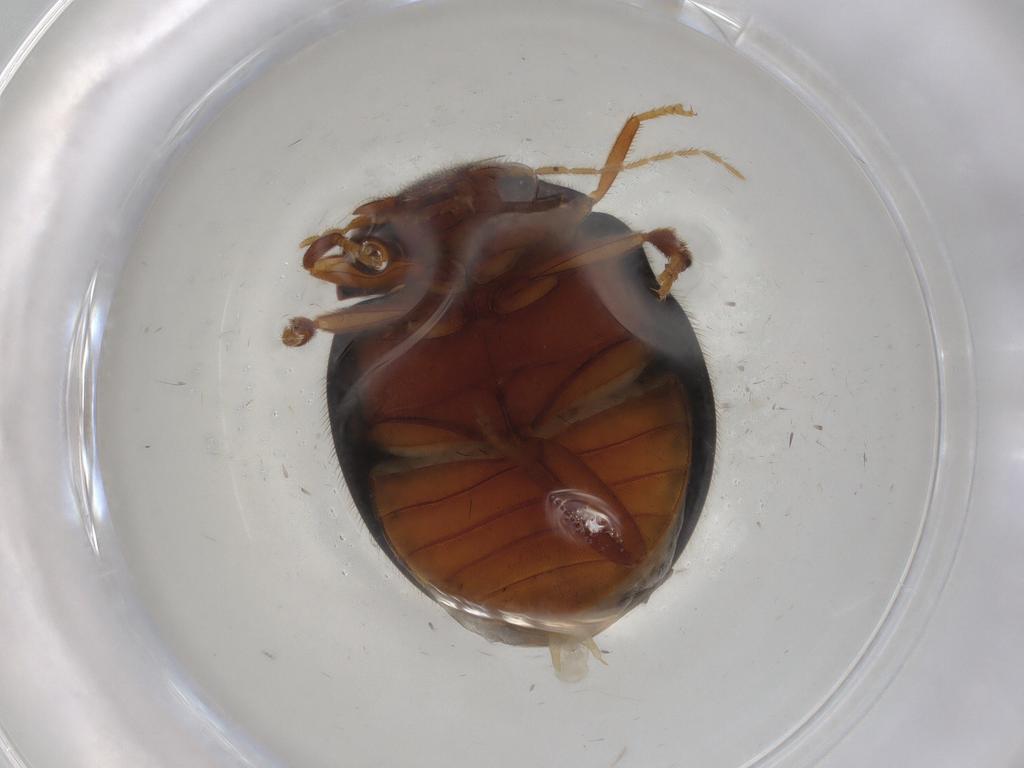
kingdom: Animalia
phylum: Arthropoda
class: Insecta
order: Coleoptera
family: Scirtidae
